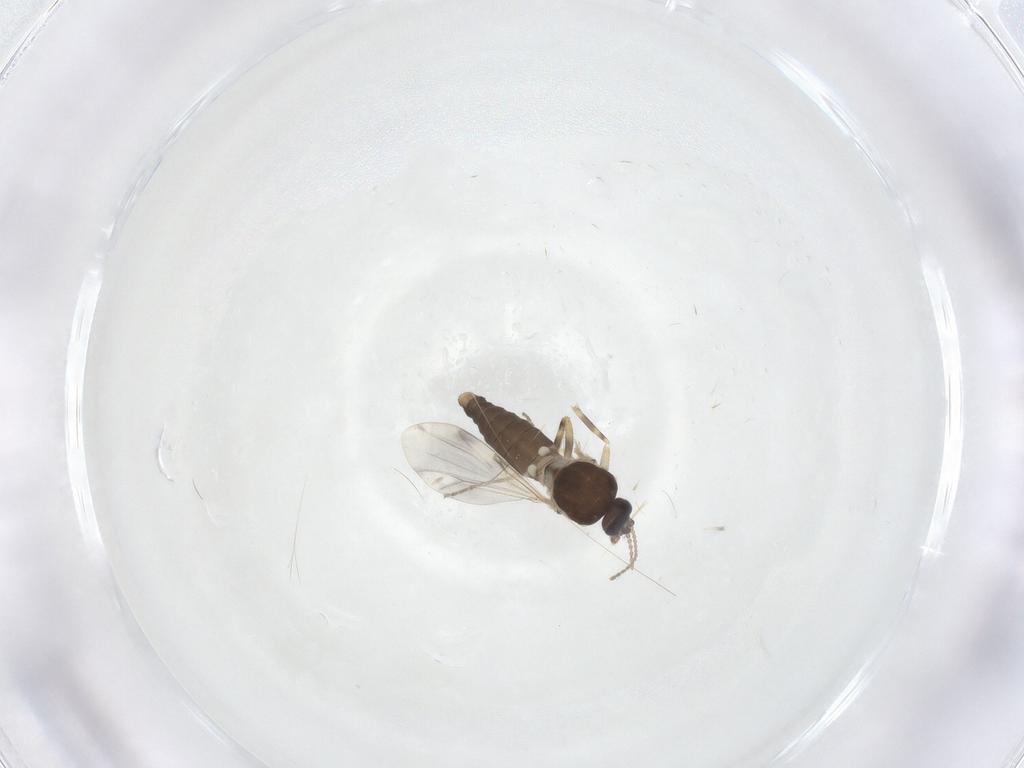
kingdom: Animalia
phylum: Arthropoda
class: Insecta
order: Diptera
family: Ceratopogonidae
